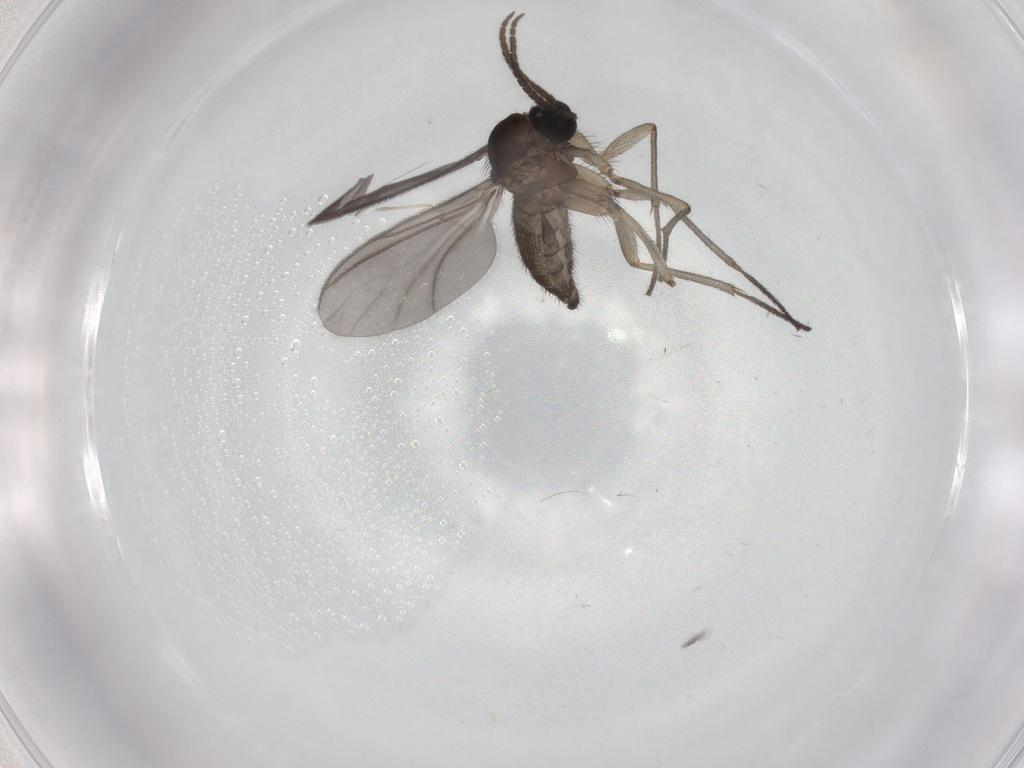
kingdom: Animalia
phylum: Arthropoda
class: Insecta
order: Diptera
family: Sciaridae
